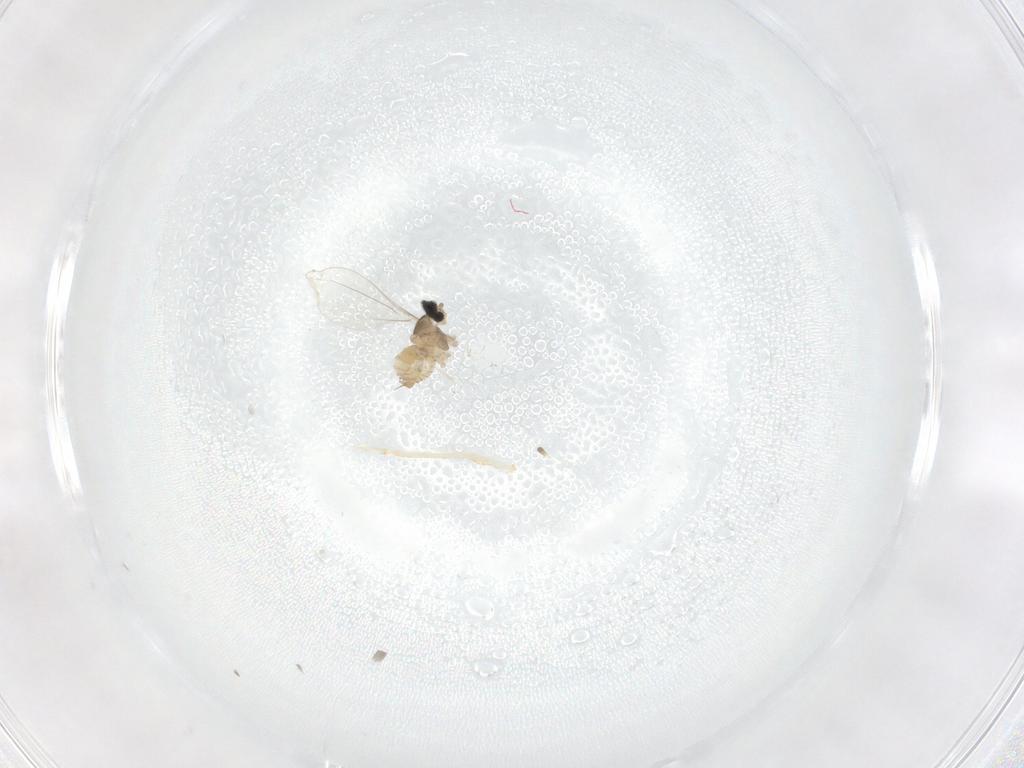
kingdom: Animalia
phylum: Arthropoda
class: Insecta
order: Diptera
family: Cecidomyiidae
